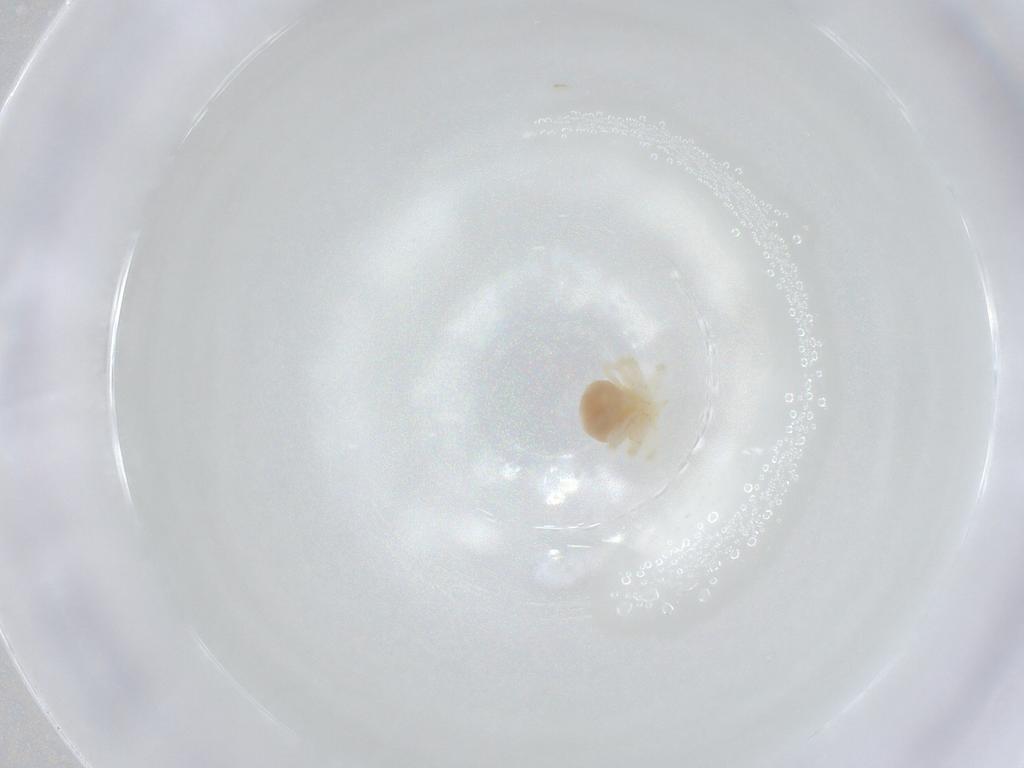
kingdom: Animalia
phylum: Arthropoda
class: Arachnida
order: Trombidiformes
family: Anystidae
